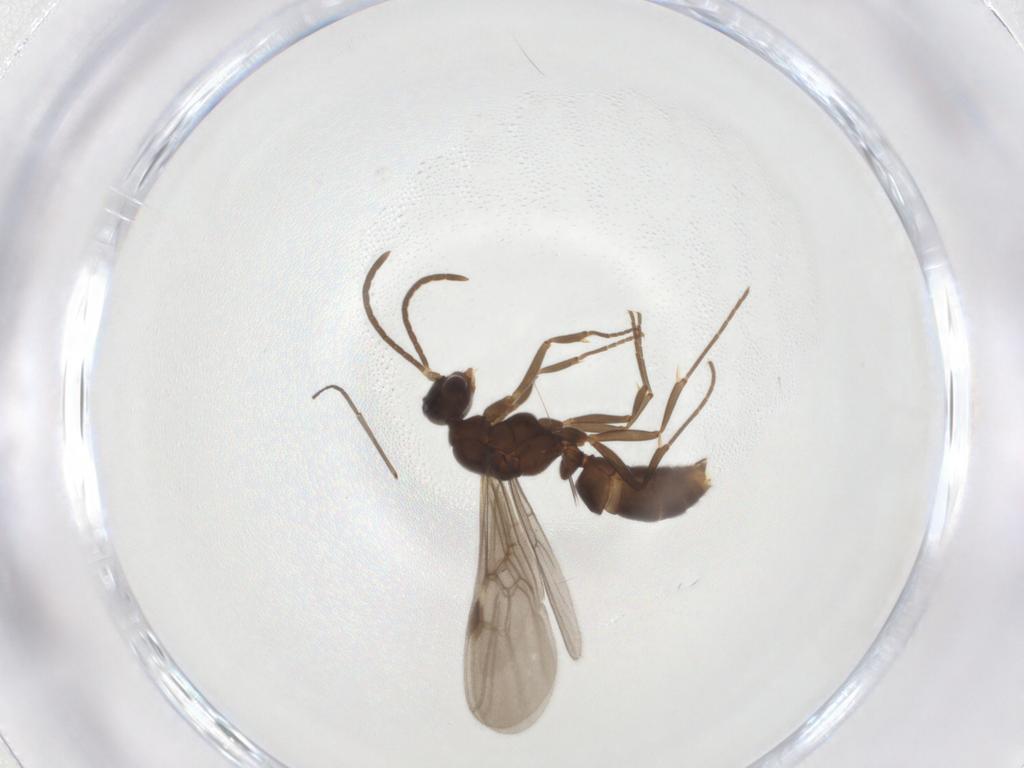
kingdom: Animalia
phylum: Arthropoda
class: Insecta
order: Hymenoptera
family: Formicidae
